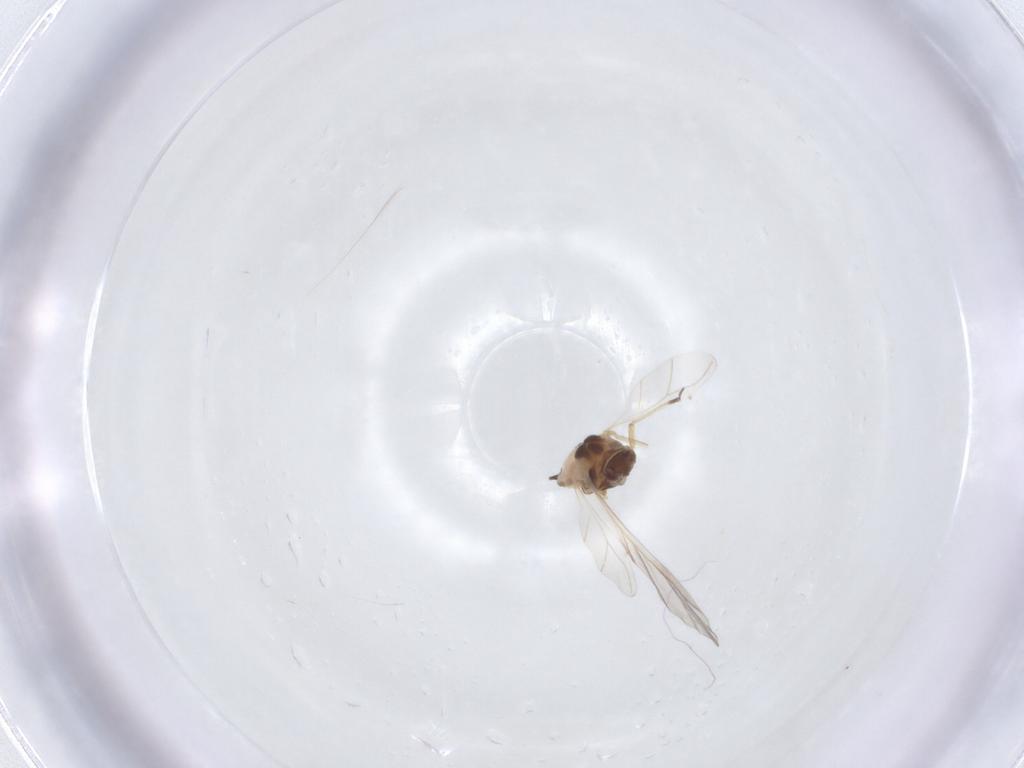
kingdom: Animalia
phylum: Arthropoda
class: Insecta
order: Hemiptera
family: Aphididae
